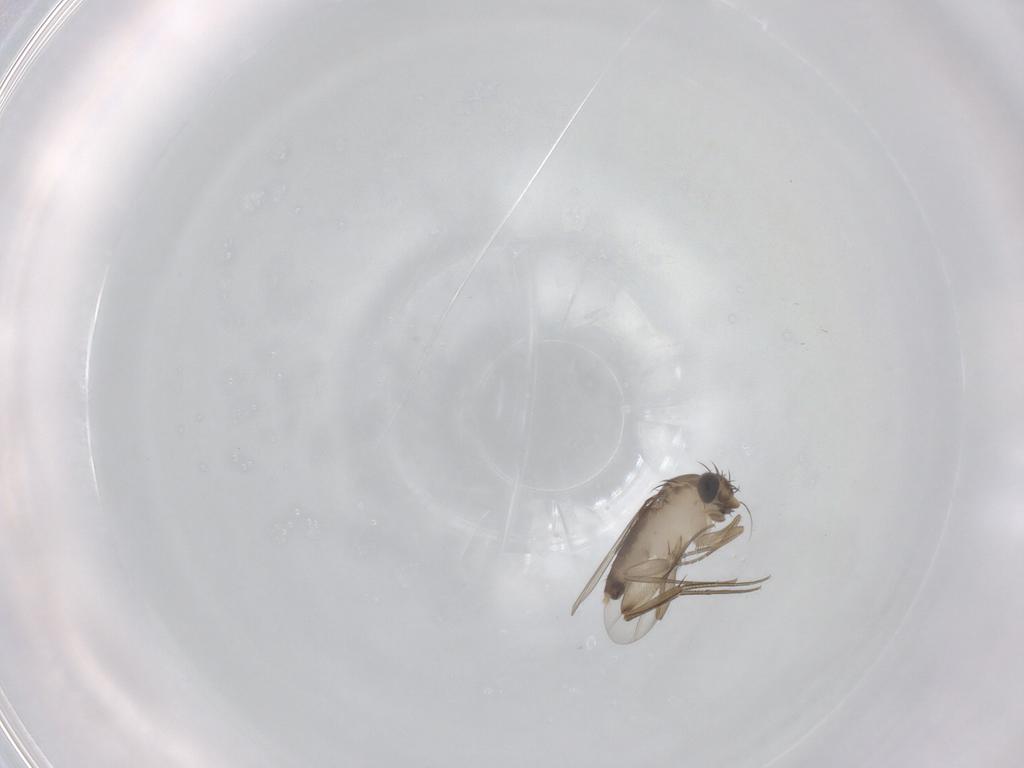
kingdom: Animalia
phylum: Arthropoda
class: Insecta
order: Diptera
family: Phoridae
